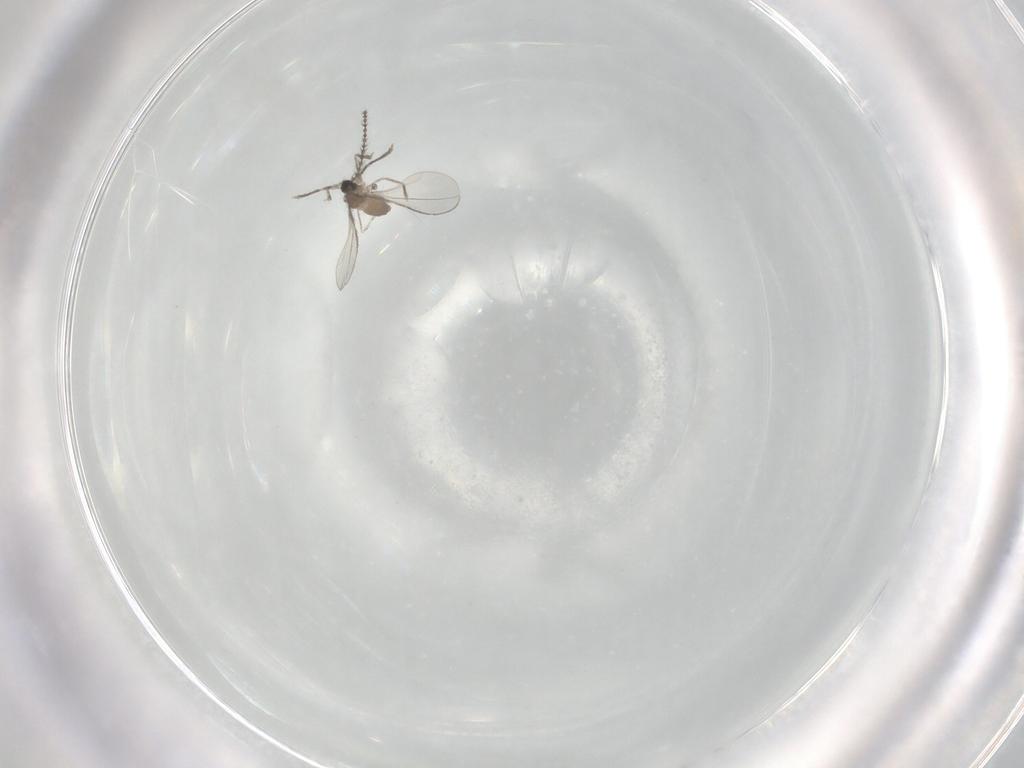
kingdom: Animalia
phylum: Arthropoda
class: Insecta
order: Diptera
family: Cecidomyiidae
